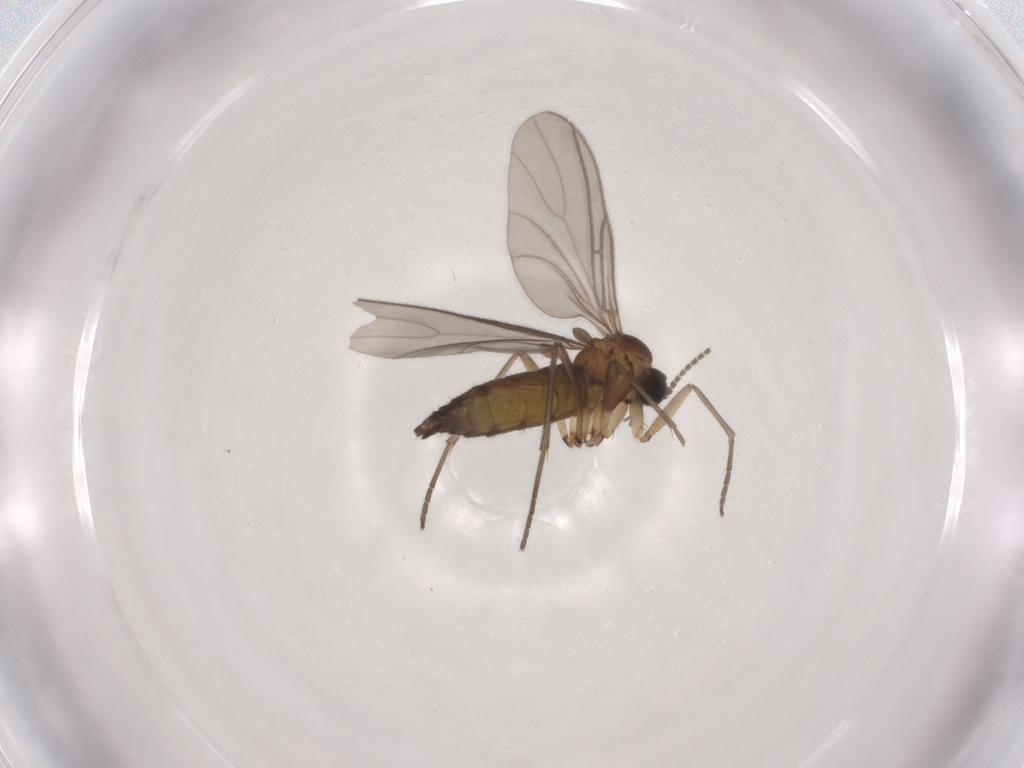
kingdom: Animalia
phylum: Arthropoda
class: Insecta
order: Diptera
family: Sciaridae
